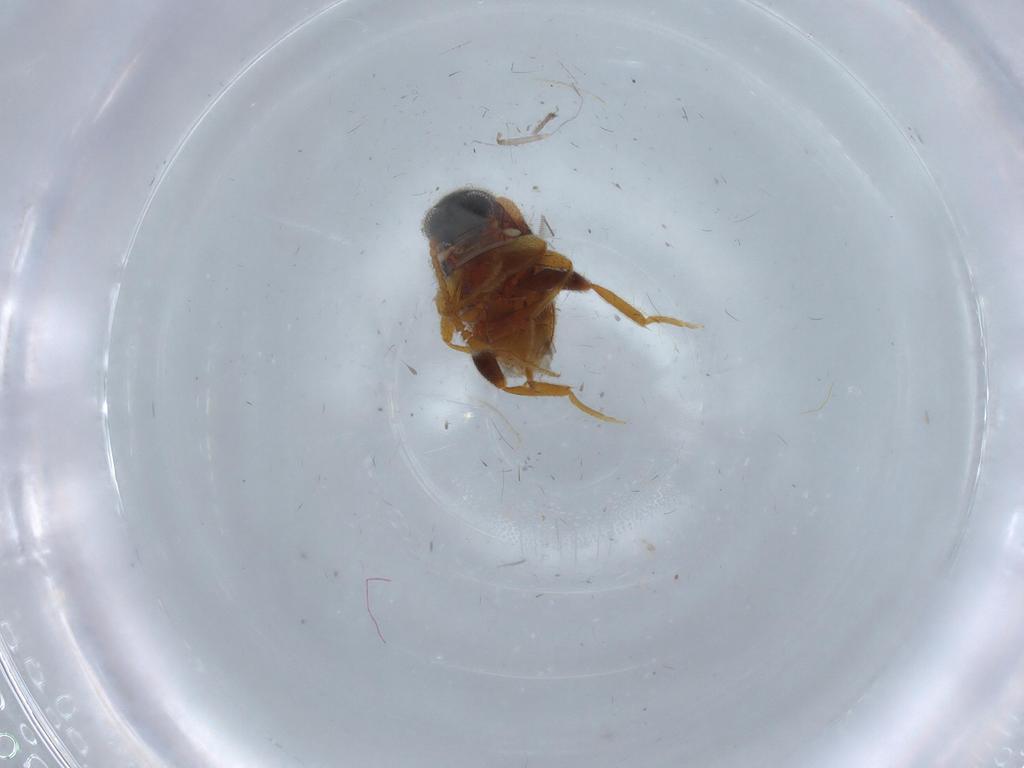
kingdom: Animalia
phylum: Arthropoda
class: Insecta
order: Coleoptera
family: Aderidae
